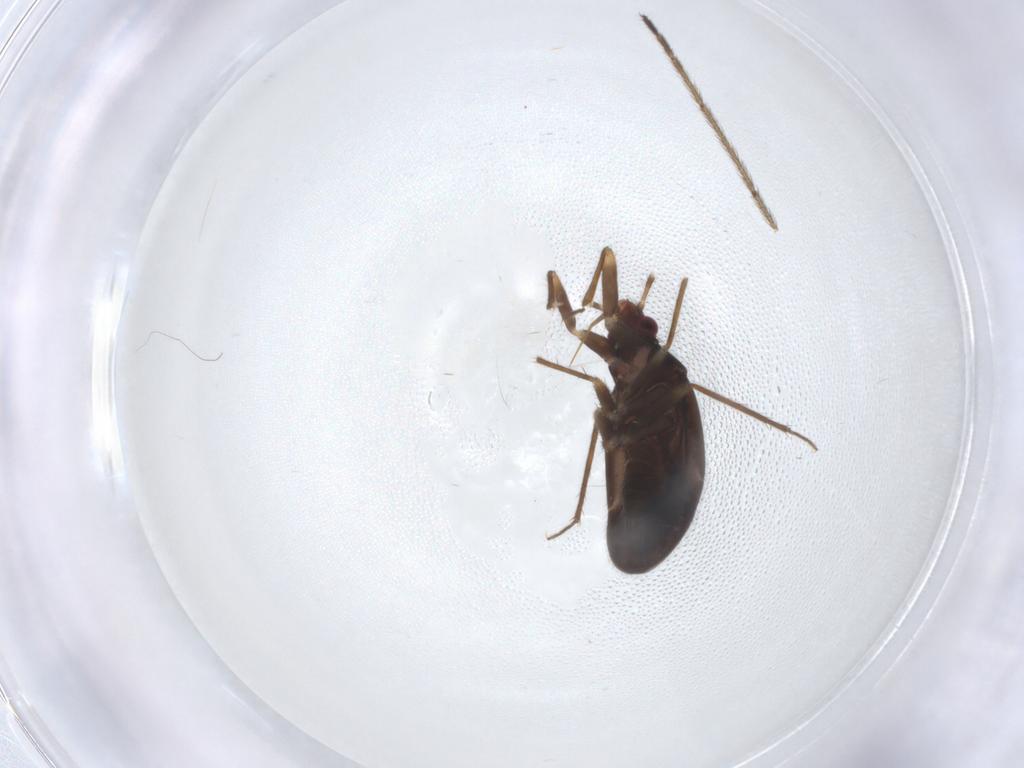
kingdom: Animalia
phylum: Arthropoda
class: Insecta
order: Hemiptera
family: Ceratocombidae
